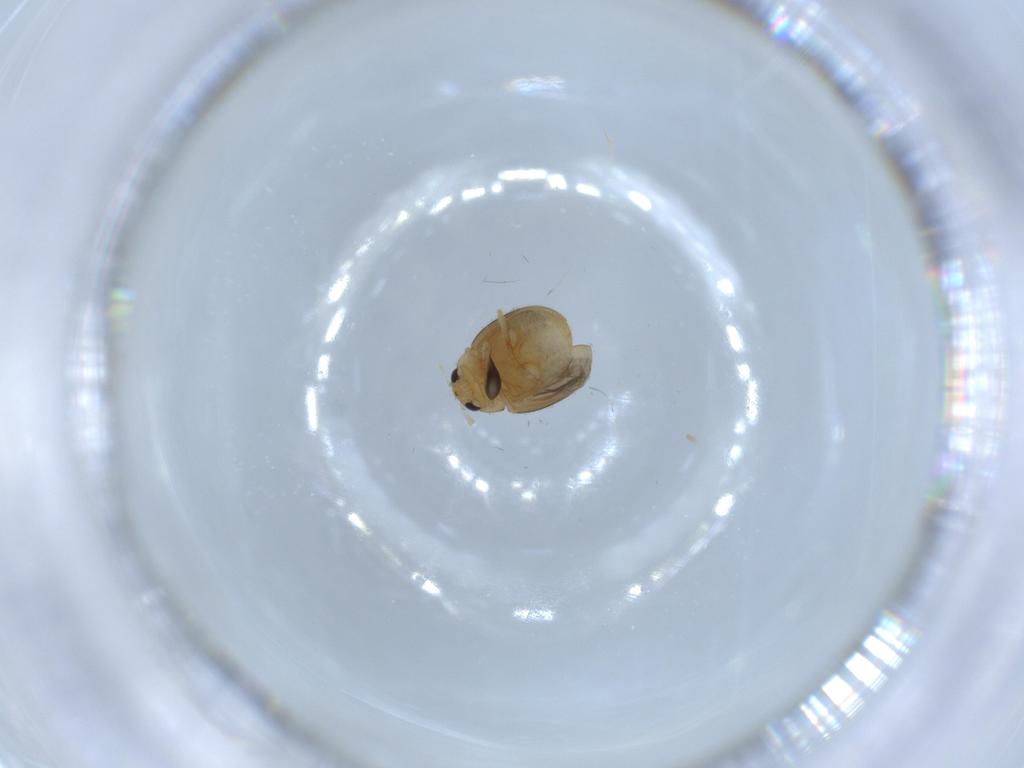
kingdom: Animalia
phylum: Arthropoda
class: Insecta
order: Coleoptera
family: Coccinellidae
